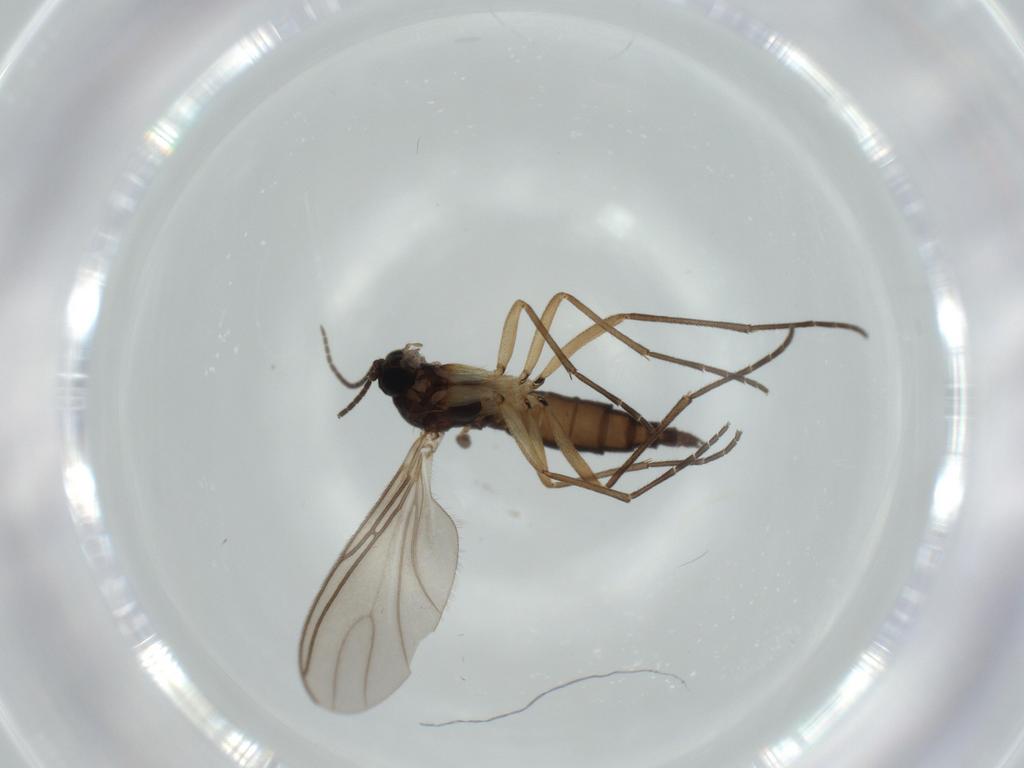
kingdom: Animalia
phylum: Arthropoda
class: Insecta
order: Diptera
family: Sciaridae
